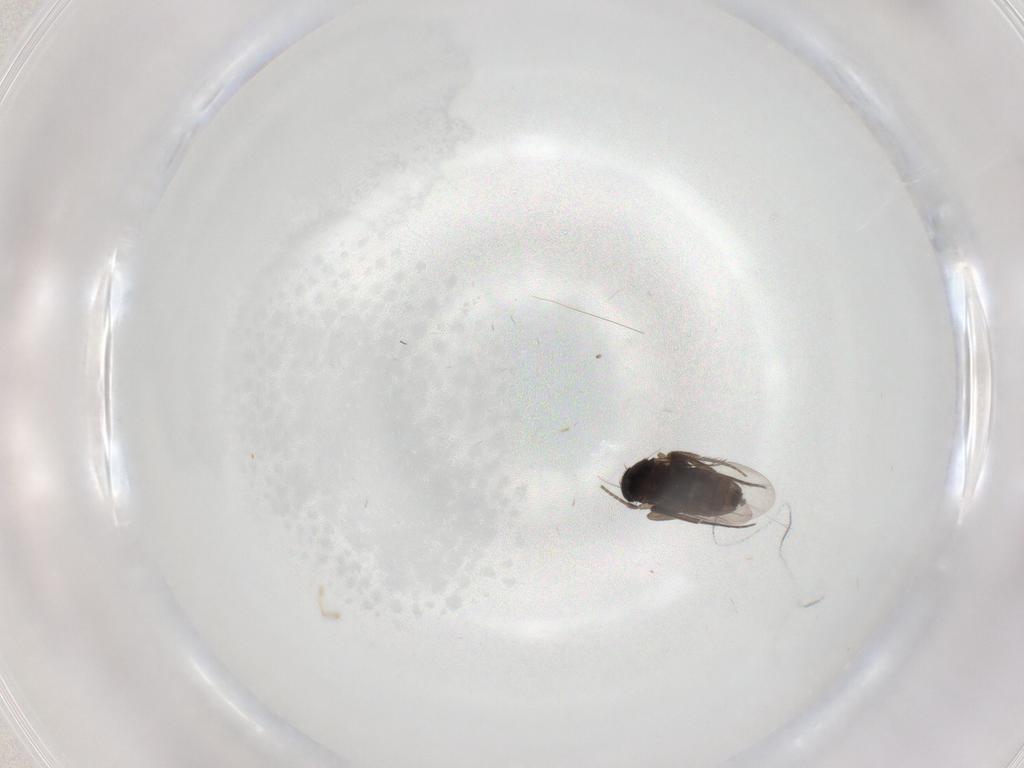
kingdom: Animalia
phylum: Arthropoda
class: Insecta
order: Diptera
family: Phoridae
